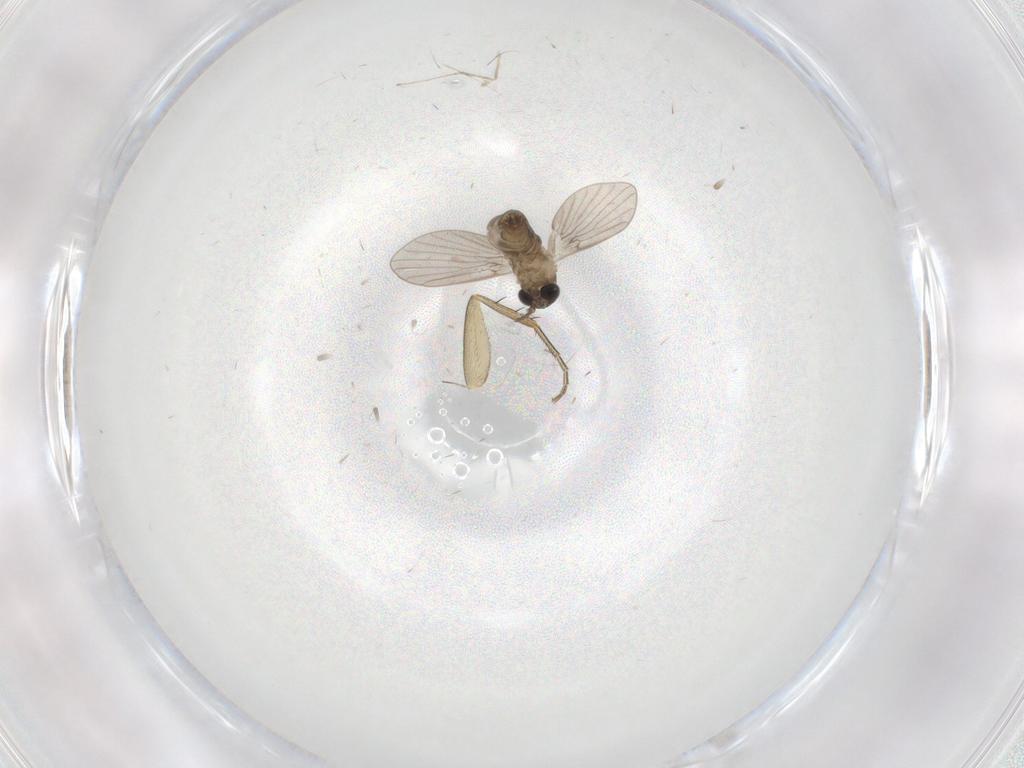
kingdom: Animalia
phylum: Arthropoda
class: Insecta
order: Diptera
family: Cecidomyiidae
